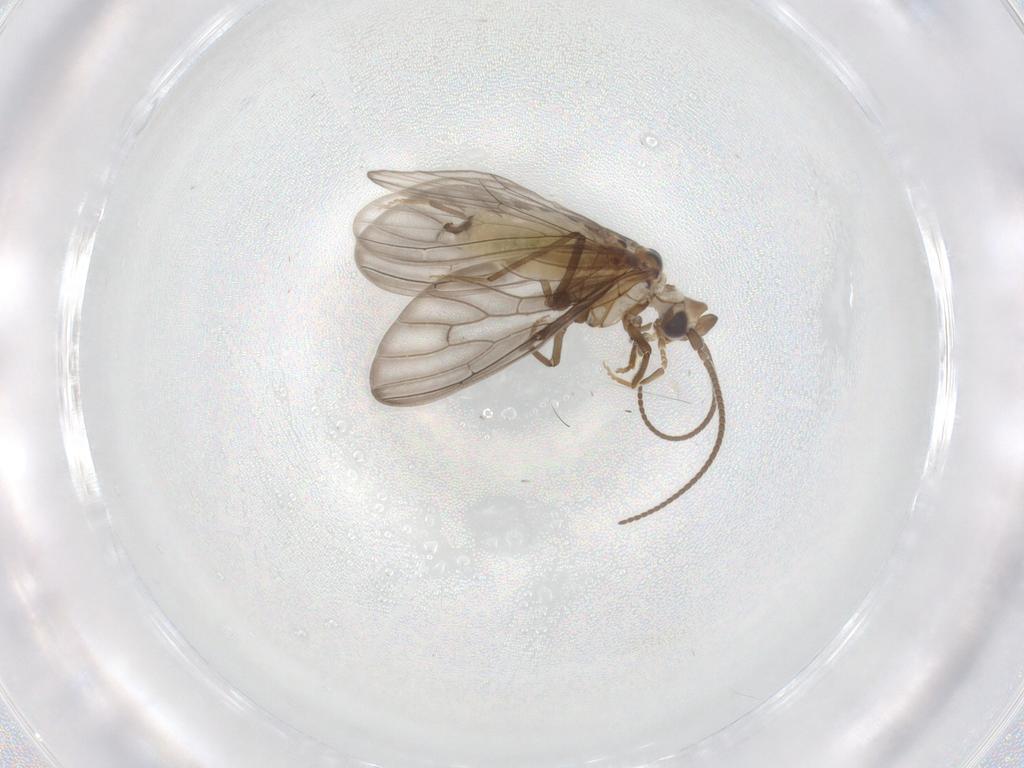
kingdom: Animalia
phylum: Arthropoda
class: Insecta
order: Neuroptera
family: Coniopterygidae
